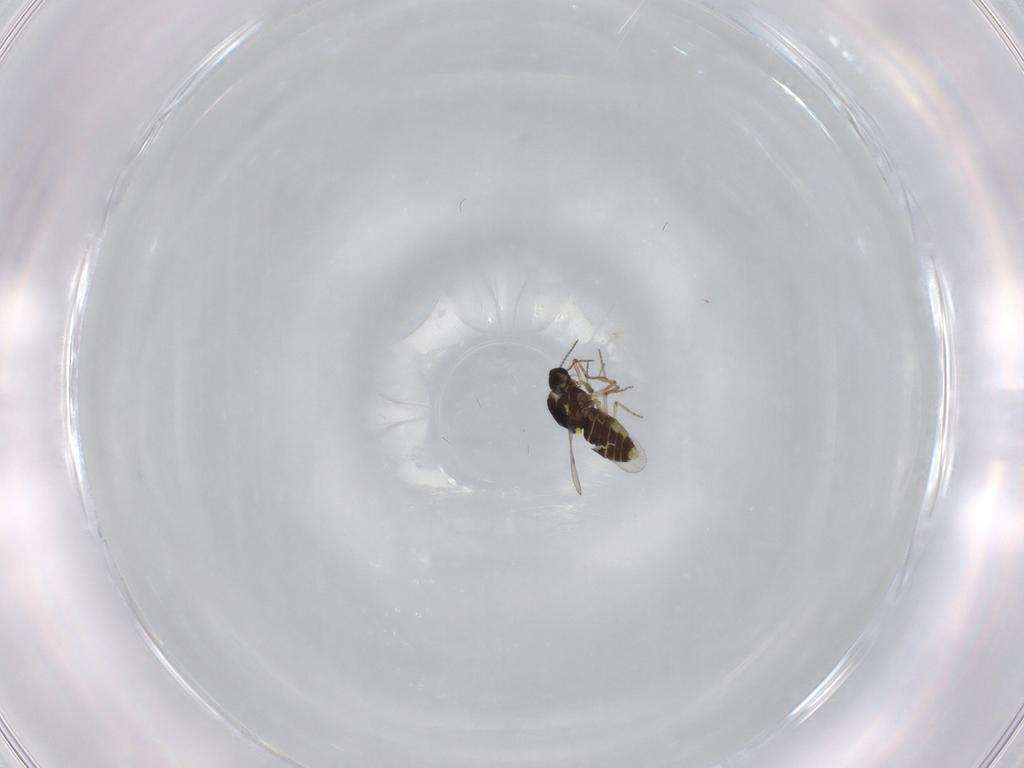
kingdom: Animalia
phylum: Arthropoda
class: Insecta
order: Diptera
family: Ceratopogonidae
